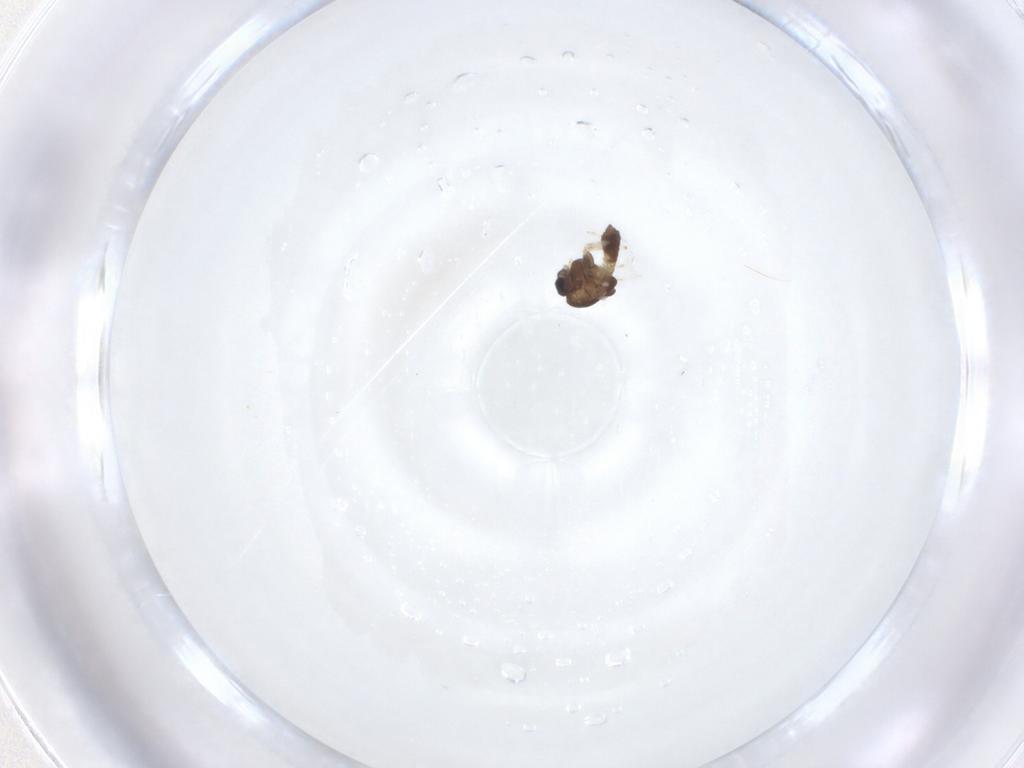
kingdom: Animalia
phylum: Arthropoda
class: Insecta
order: Diptera
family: Chironomidae
